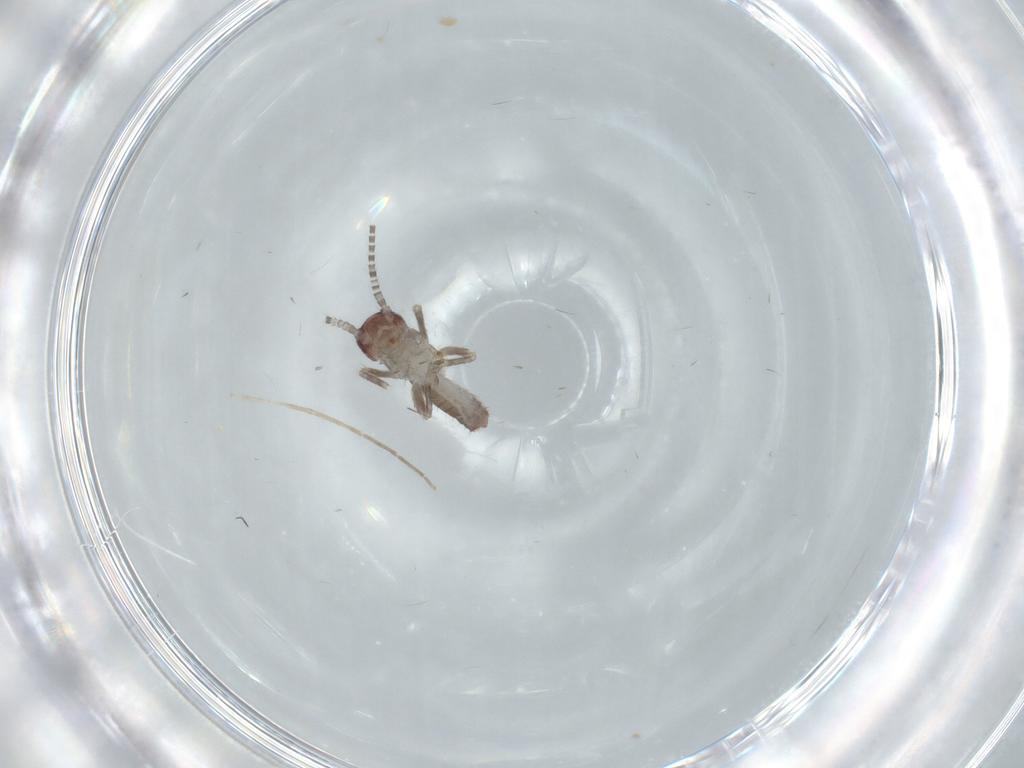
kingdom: Animalia
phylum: Arthropoda
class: Insecta
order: Orthoptera
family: Mogoplistidae
